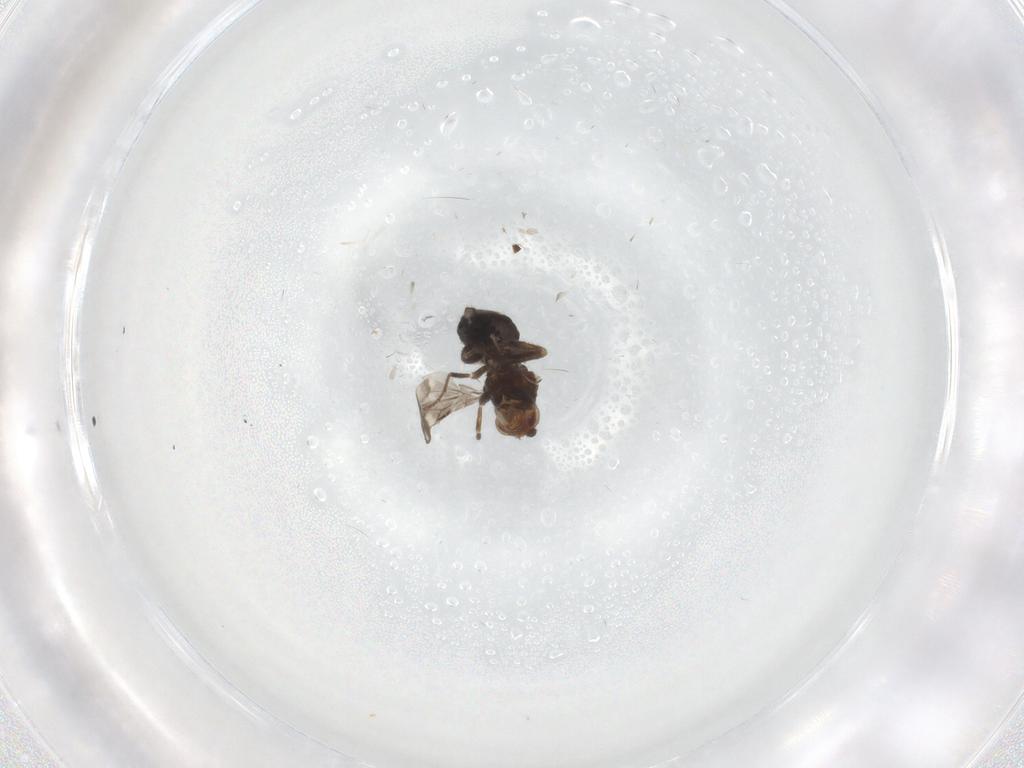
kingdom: Animalia
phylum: Arthropoda
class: Insecta
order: Diptera
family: Sphaeroceridae
